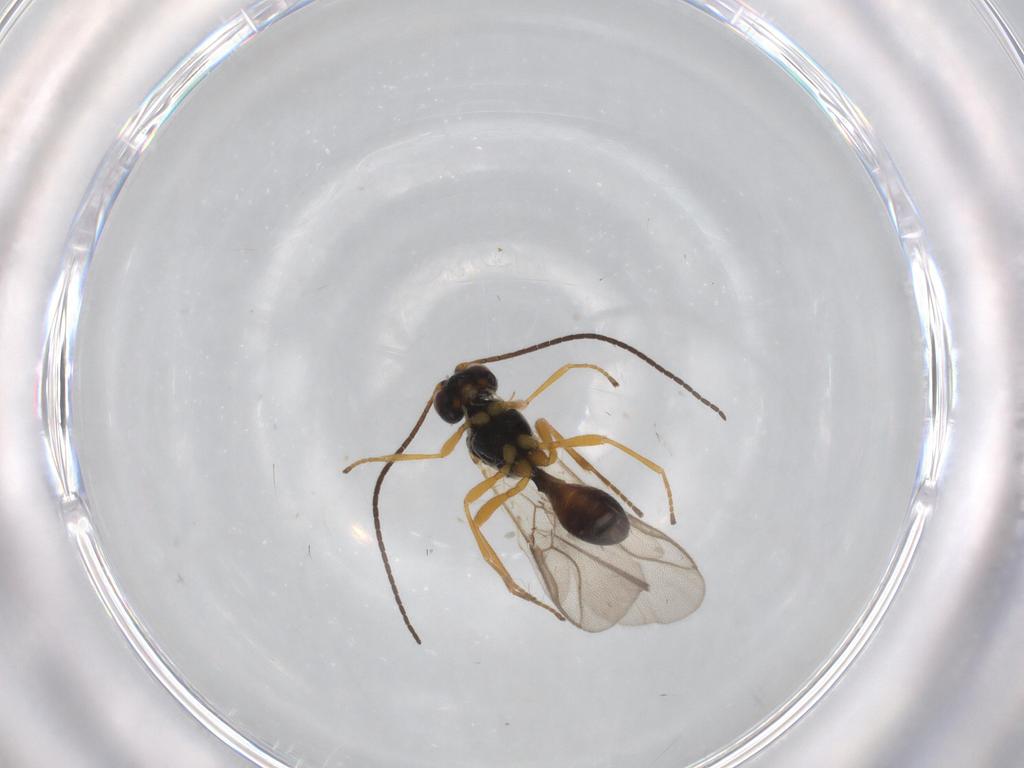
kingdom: Animalia
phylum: Arthropoda
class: Insecta
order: Hymenoptera
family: Braconidae
